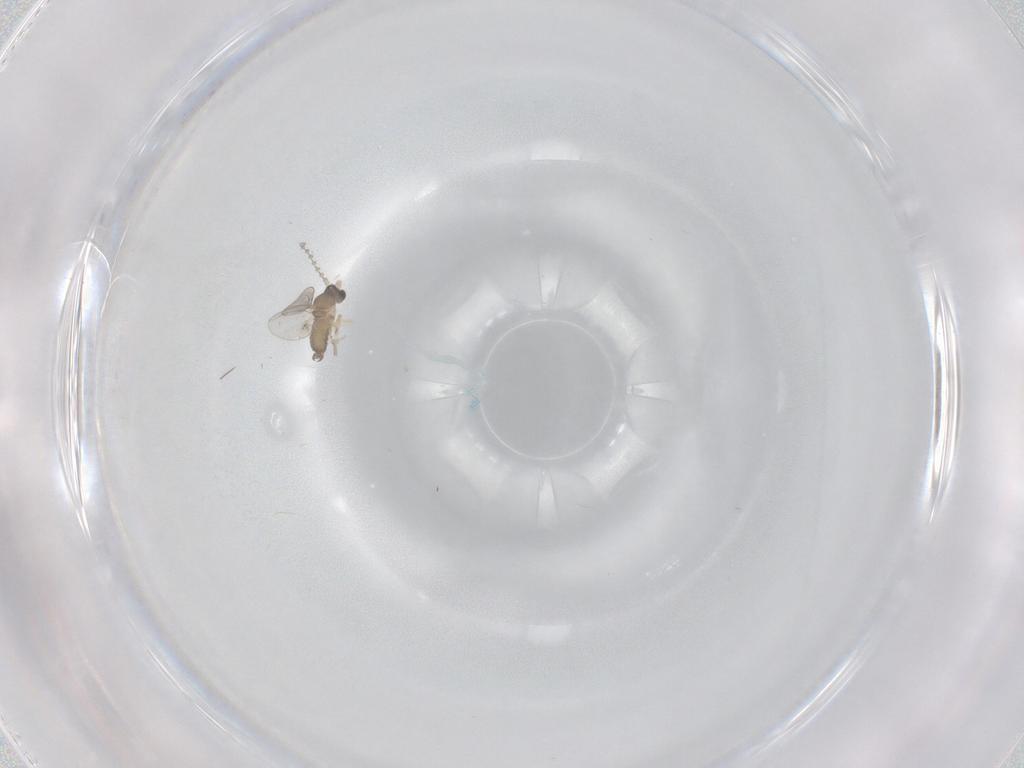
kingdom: Animalia
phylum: Arthropoda
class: Insecta
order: Diptera
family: Cecidomyiidae
